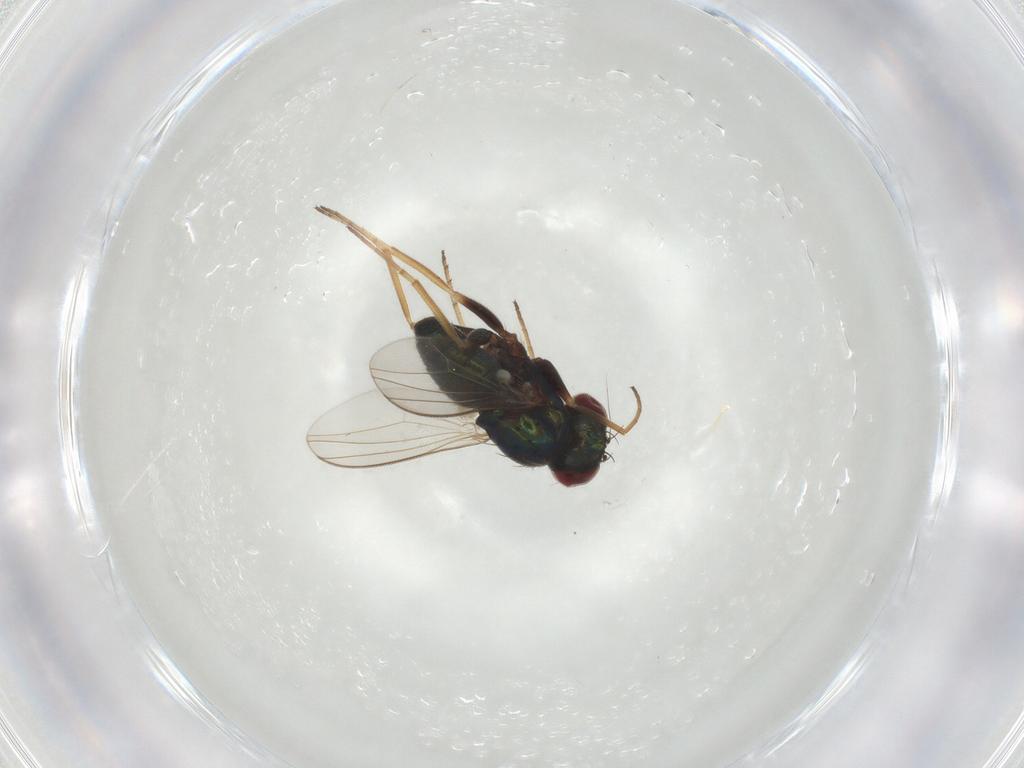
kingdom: Animalia
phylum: Arthropoda
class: Insecta
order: Diptera
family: Dolichopodidae
